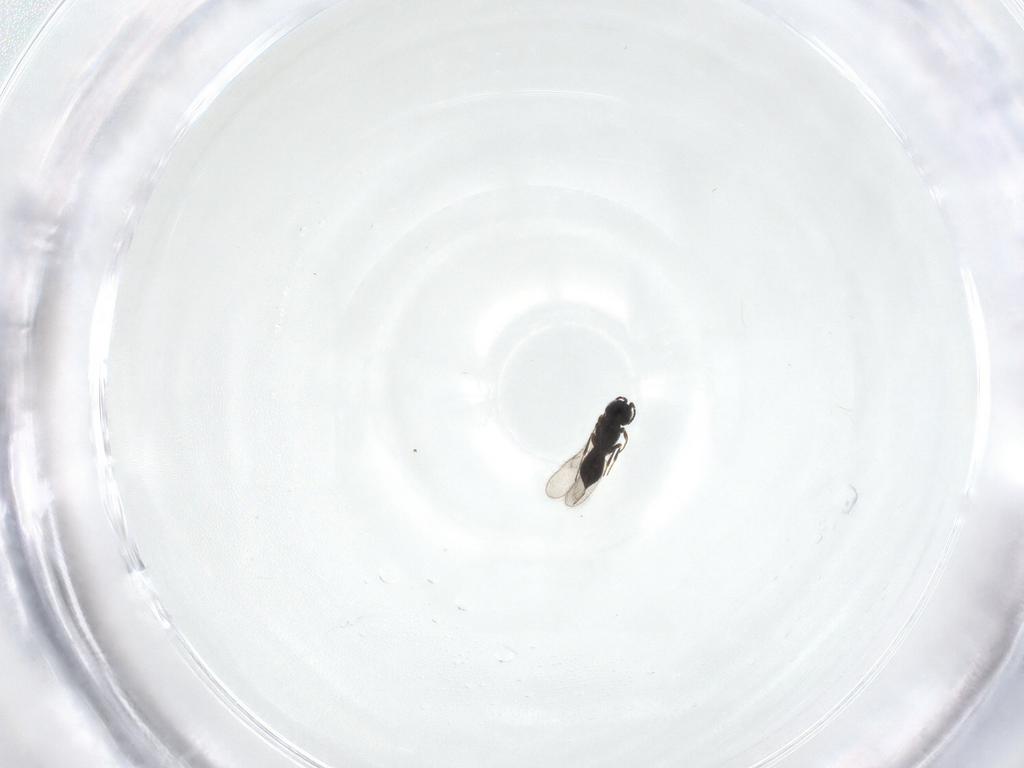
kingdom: Animalia
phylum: Arthropoda
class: Insecta
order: Hymenoptera
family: Scelionidae
